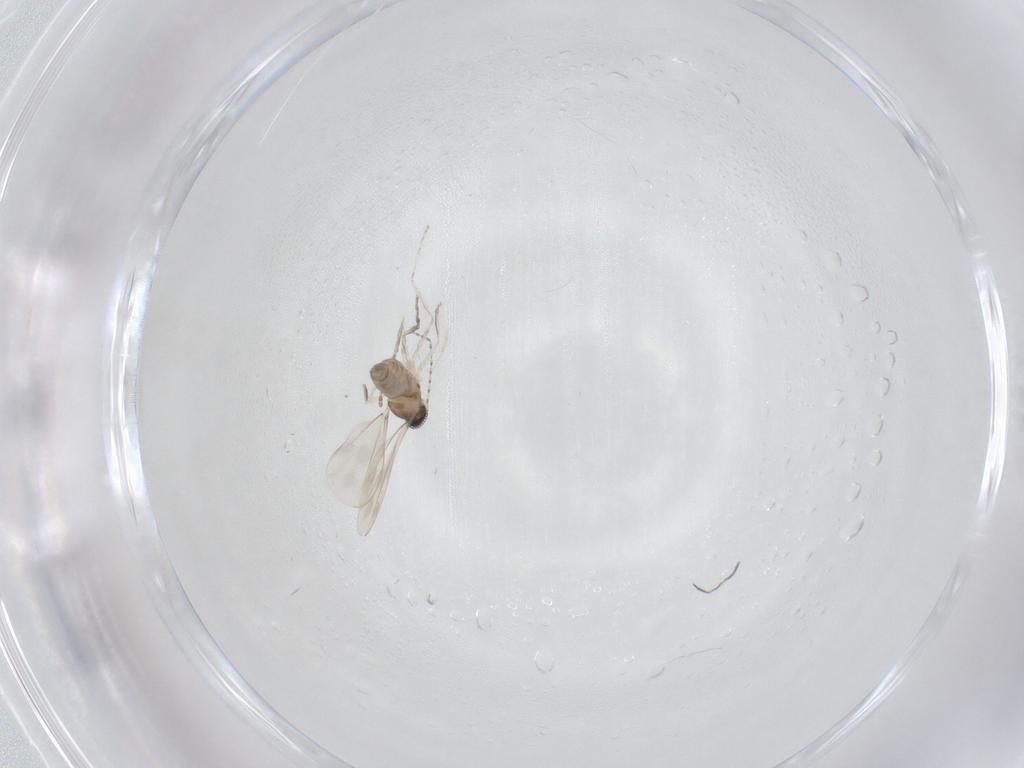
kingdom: Animalia
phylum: Arthropoda
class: Insecta
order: Diptera
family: Cecidomyiidae
